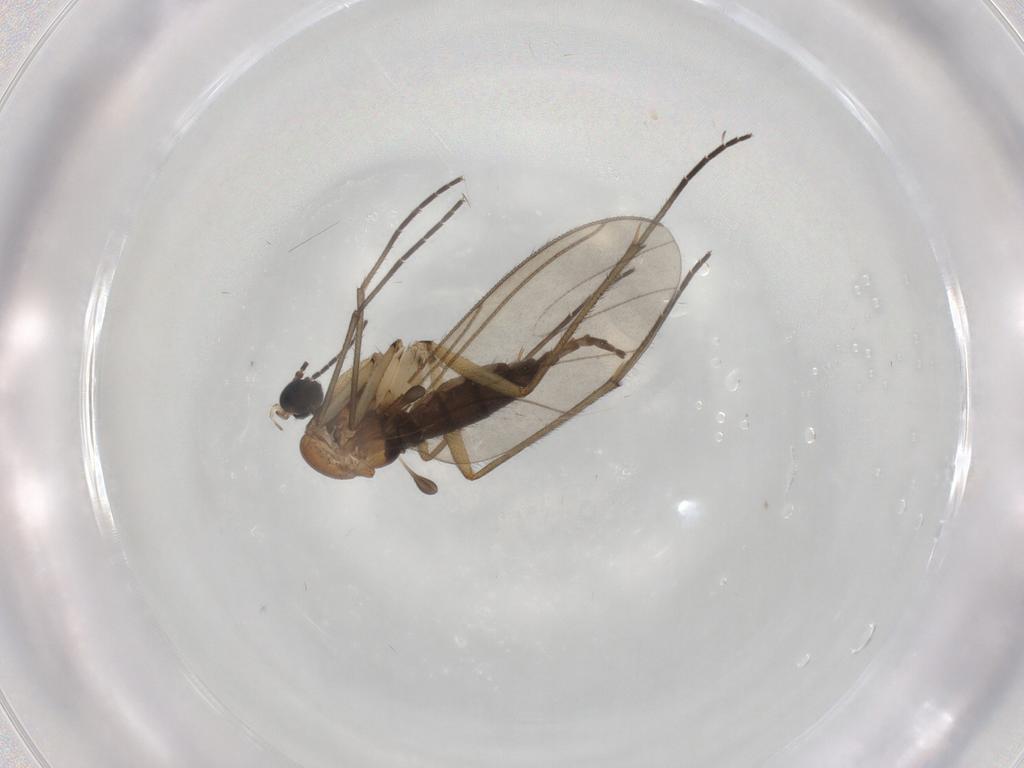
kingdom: Animalia
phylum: Arthropoda
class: Insecta
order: Diptera
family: Sciaridae
